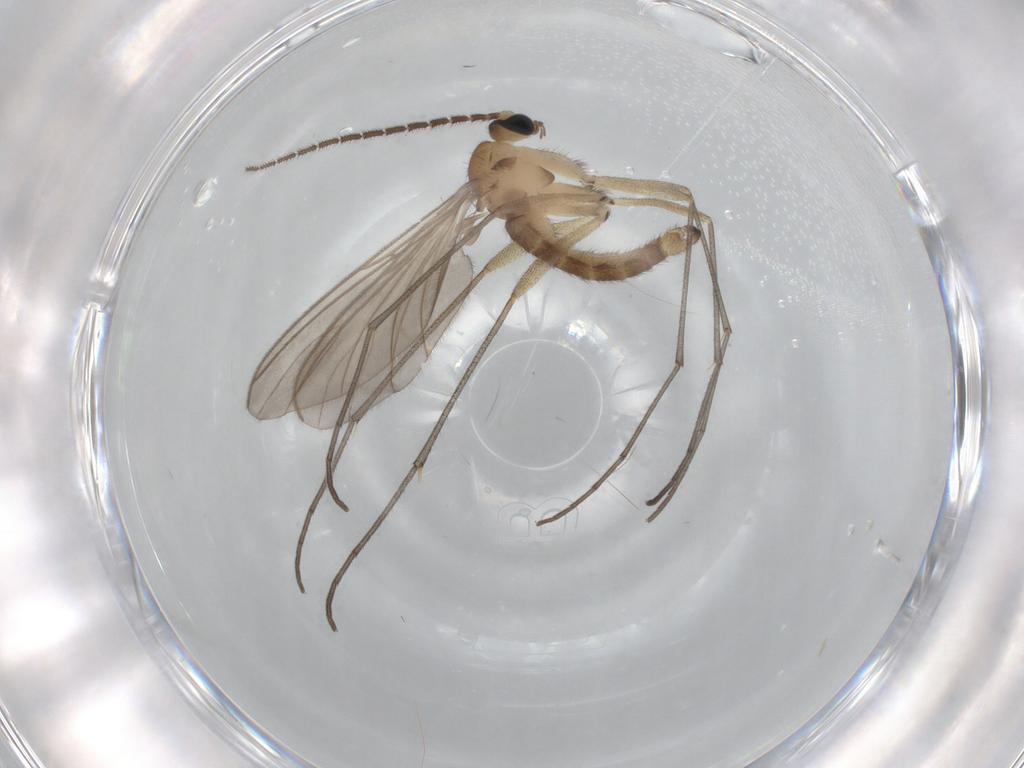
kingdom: Animalia
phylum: Arthropoda
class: Insecta
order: Diptera
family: Sciaridae
